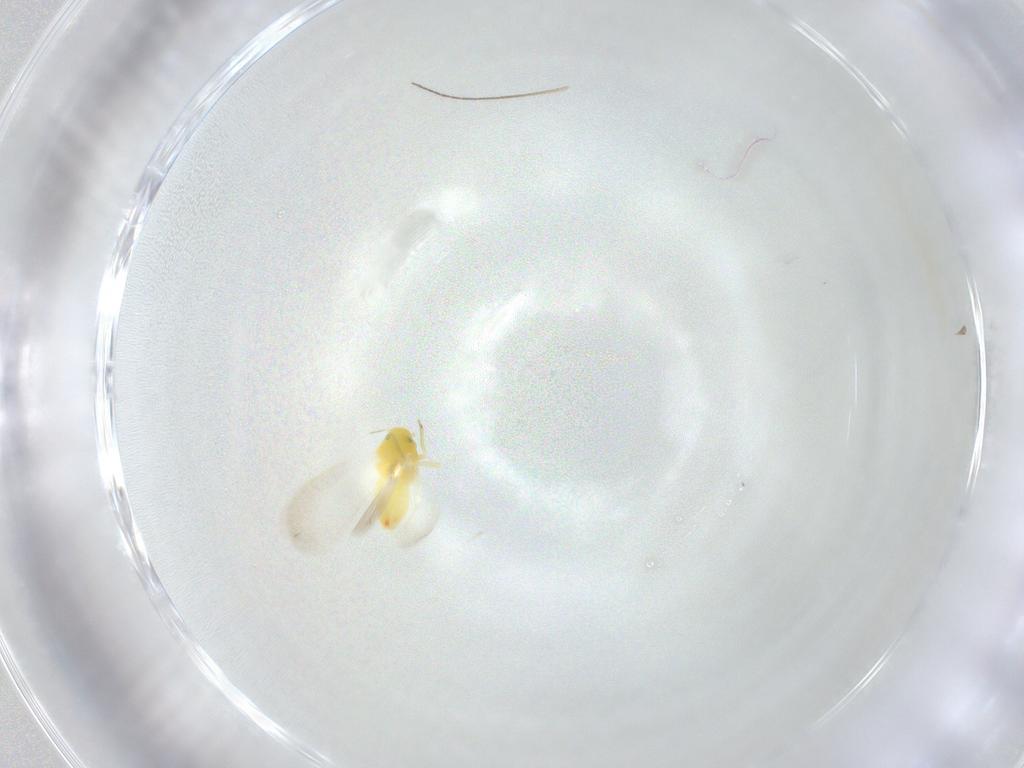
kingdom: Animalia
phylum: Arthropoda
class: Insecta
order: Hemiptera
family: Aleyrodidae
